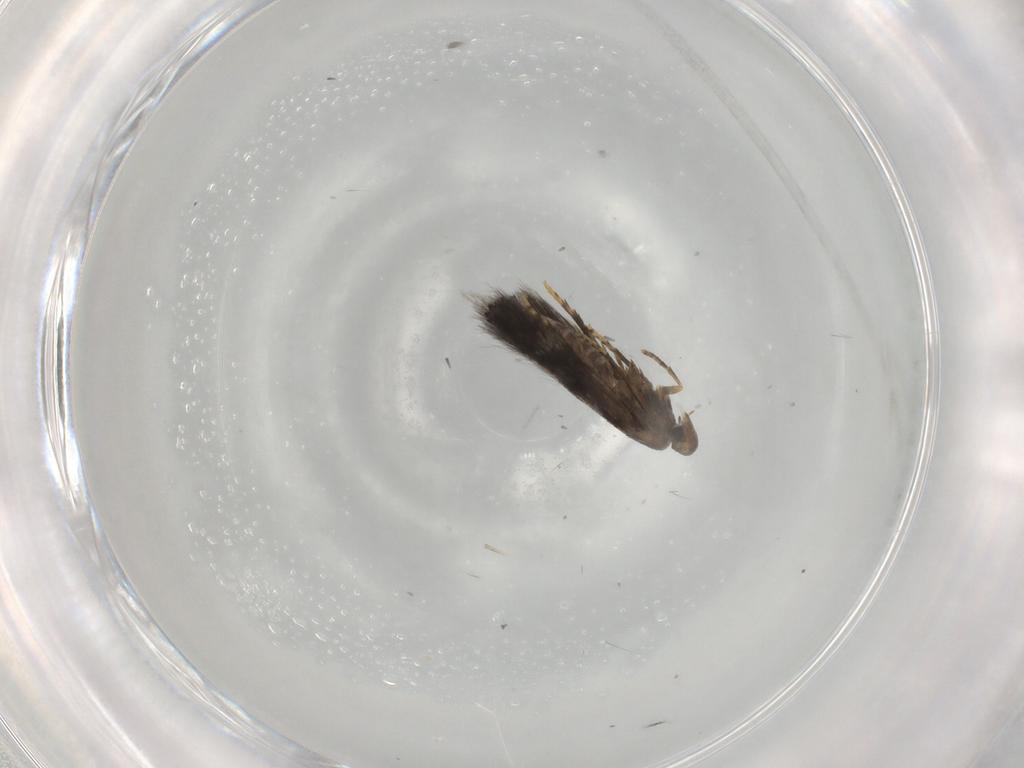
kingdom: Animalia
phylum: Arthropoda
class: Insecta
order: Lepidoptera
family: Heliozelidae
